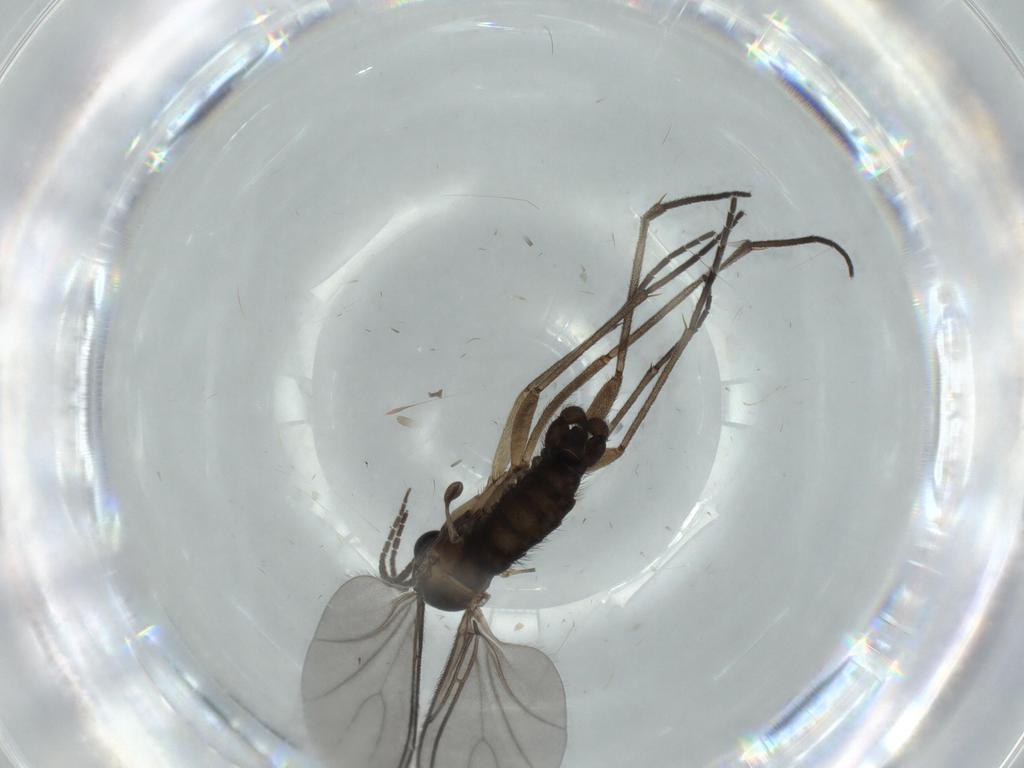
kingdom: Animalia
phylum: Arthropoda
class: Insecta
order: Diptera
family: Sciaridae
